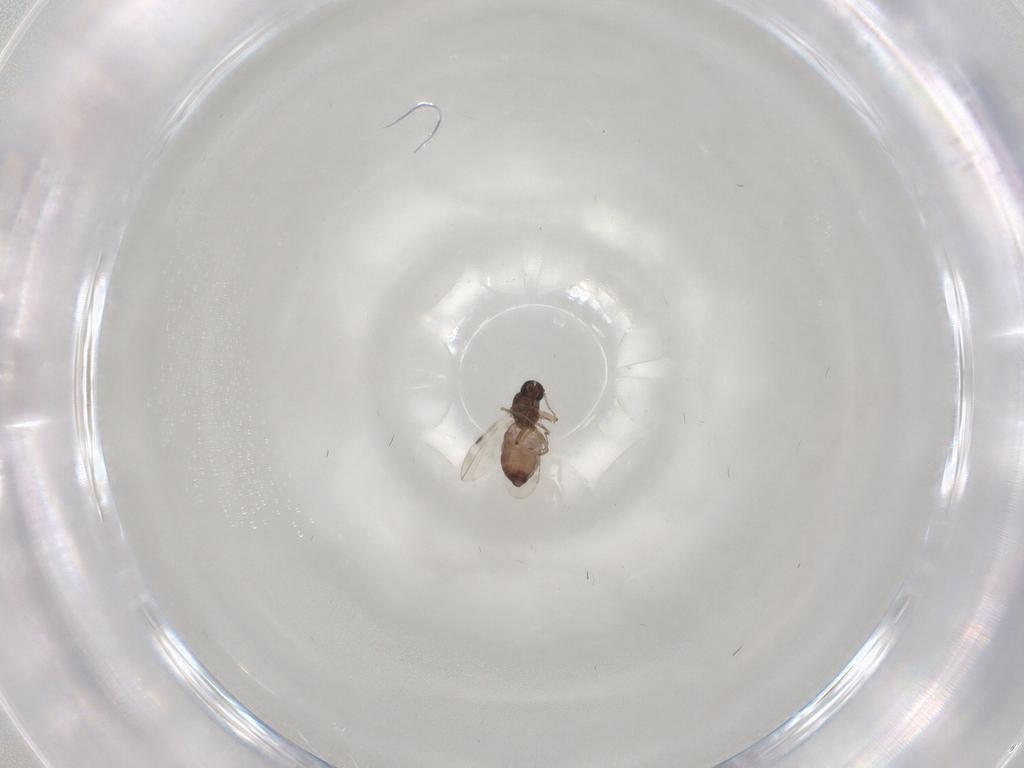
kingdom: Animalia
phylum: Arthropoda
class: Insecta
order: Diptera
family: Chironomidae
